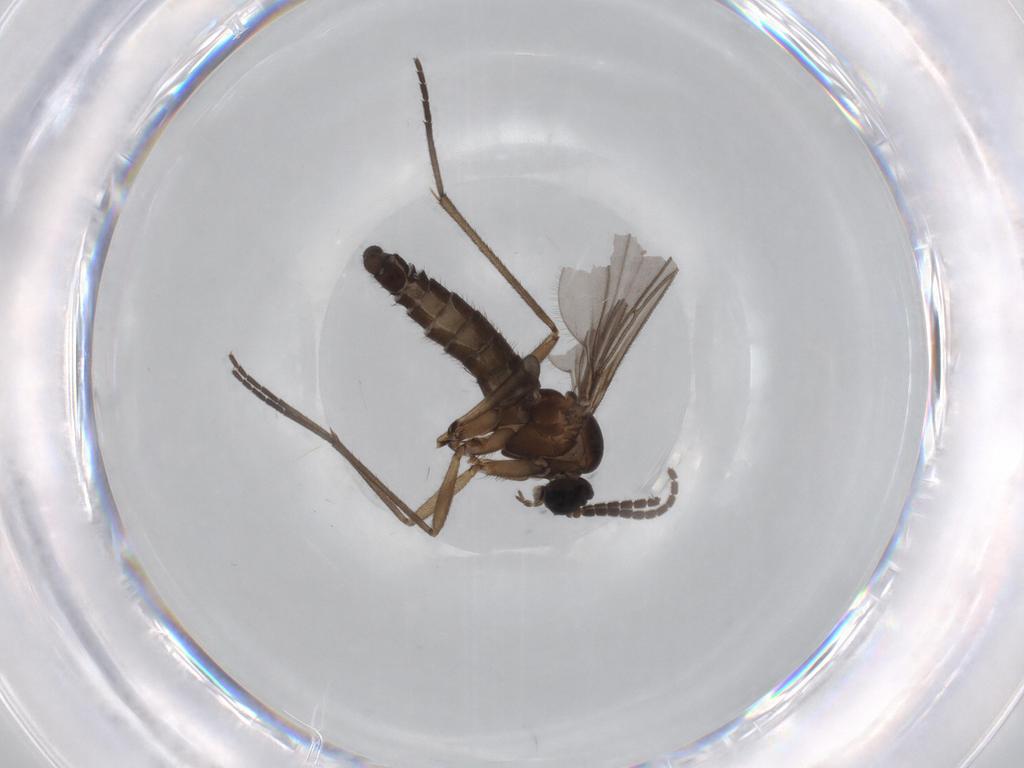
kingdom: Animalia
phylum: Arthropoda
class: Insecta
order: Diptera
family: Sciaridae
